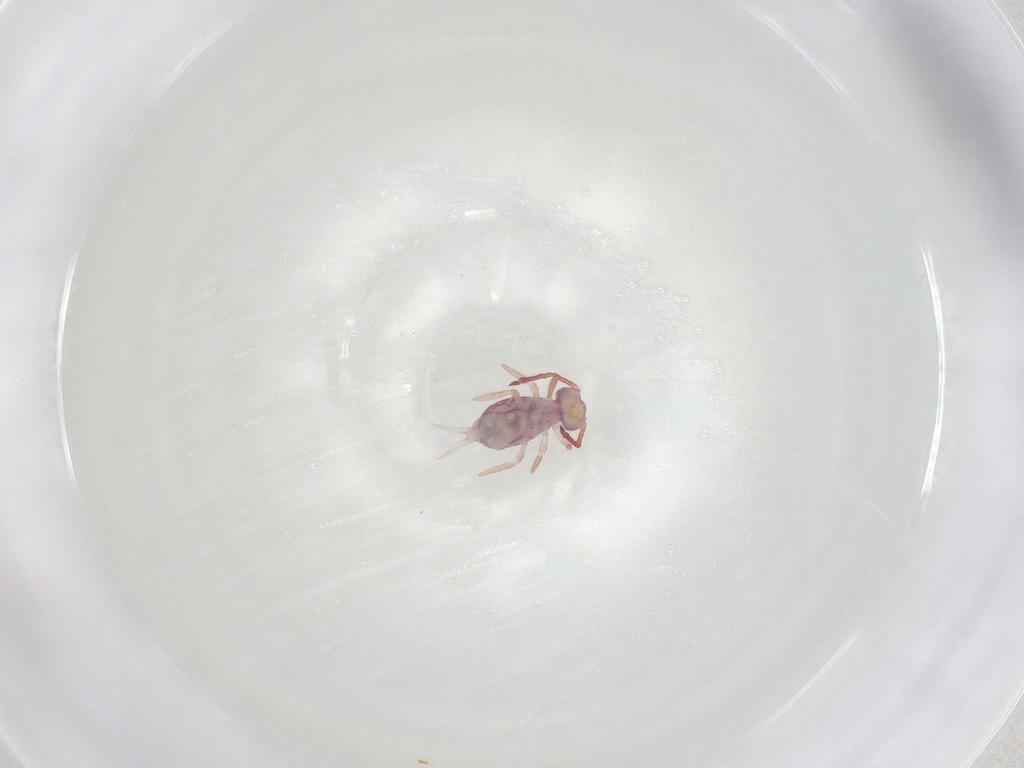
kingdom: Animalia
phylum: Arthropoda
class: Collembola
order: Symphypleona
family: Dicyrtomidae
